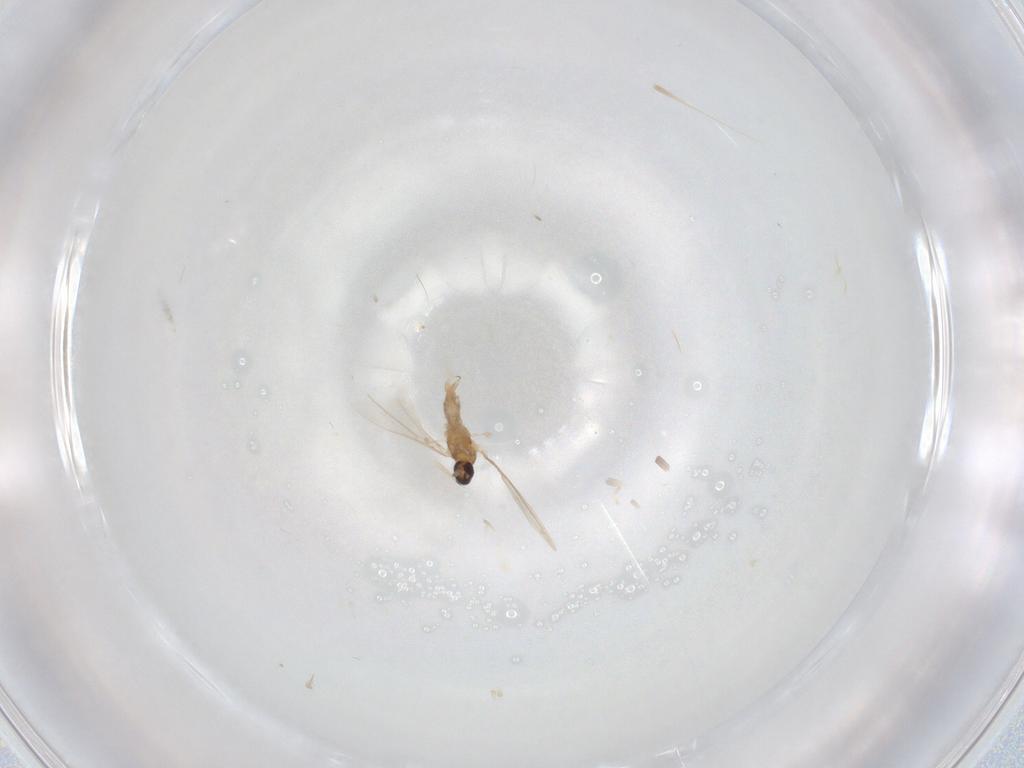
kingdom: Animalia
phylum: Arthropoda
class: Insecta
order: Diptera
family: Cecidomyiidae
